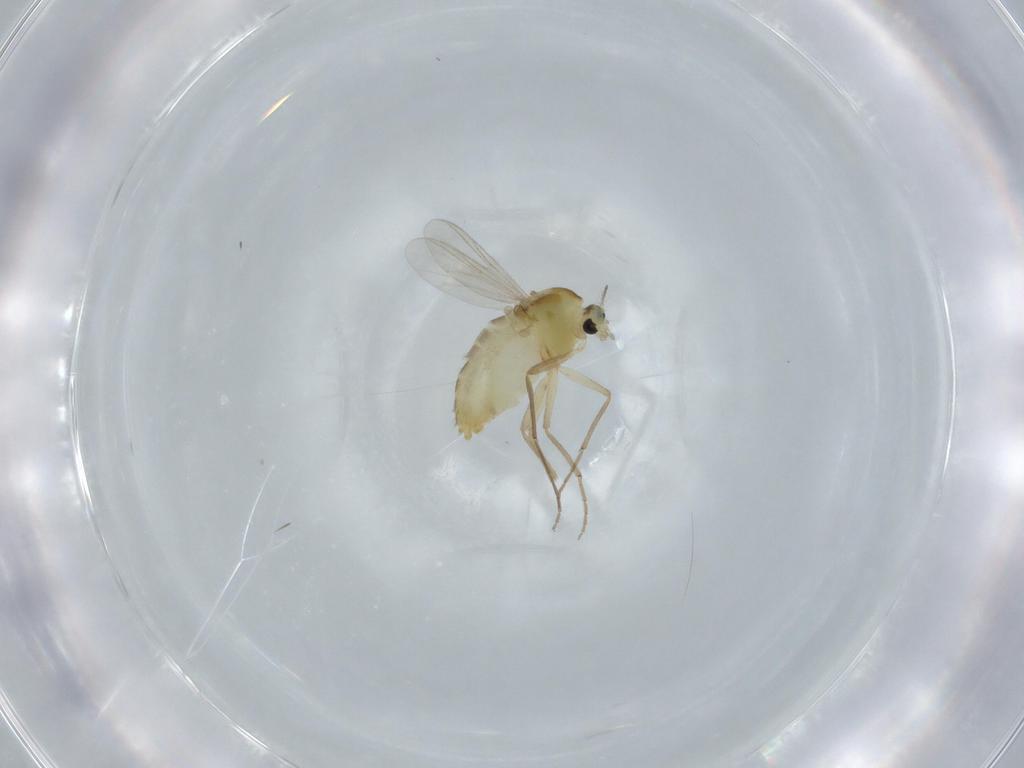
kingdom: Animalia
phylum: Arthropoda
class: Insecta
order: Diptera
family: Chironomidae
